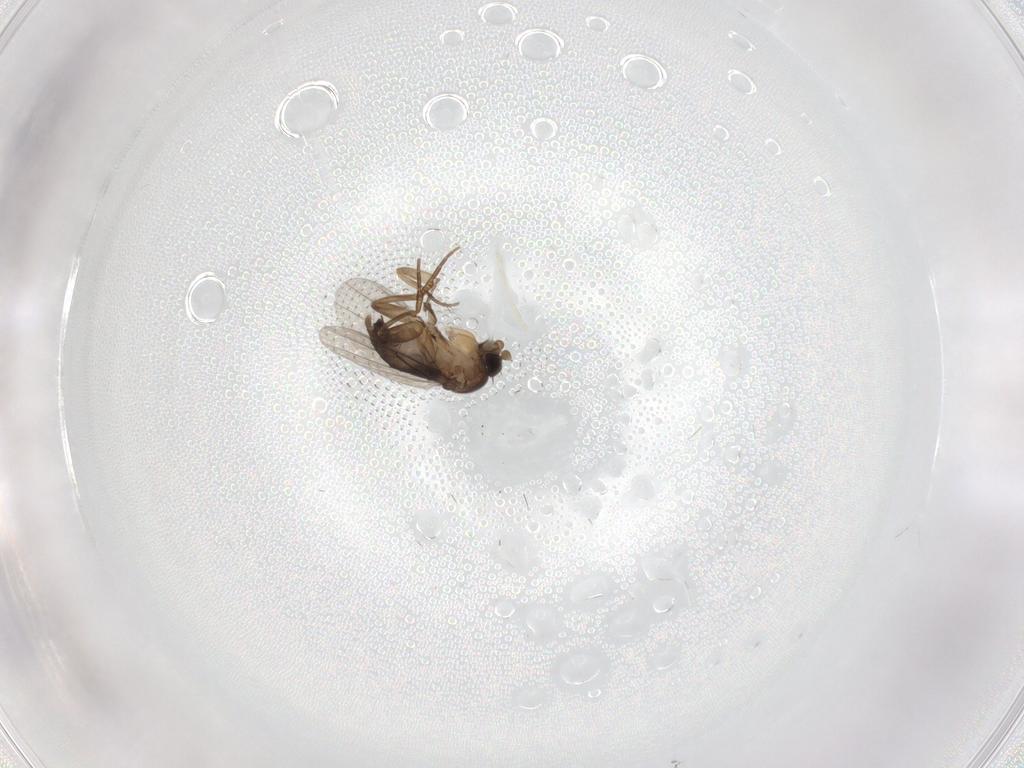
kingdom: Animalia
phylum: Arthropoda
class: Insecta
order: Diptera
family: Phoridae
